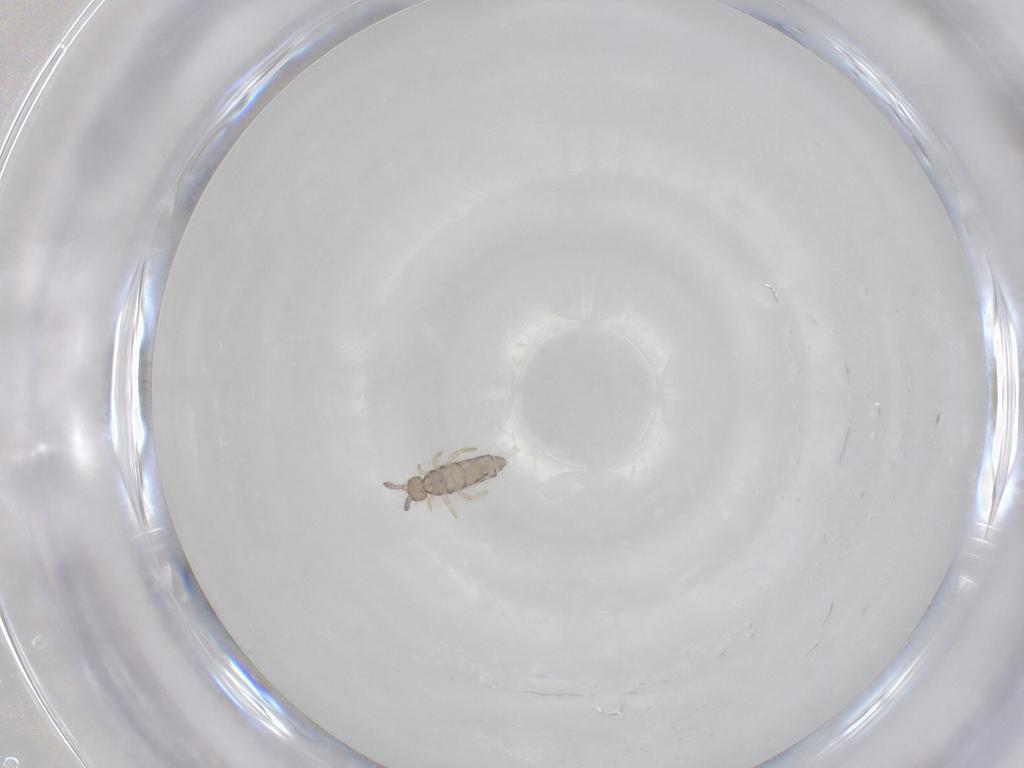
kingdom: Animalia
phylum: Arthropoda
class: Collembola
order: Entomobryomorpha
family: Entomobryidae
